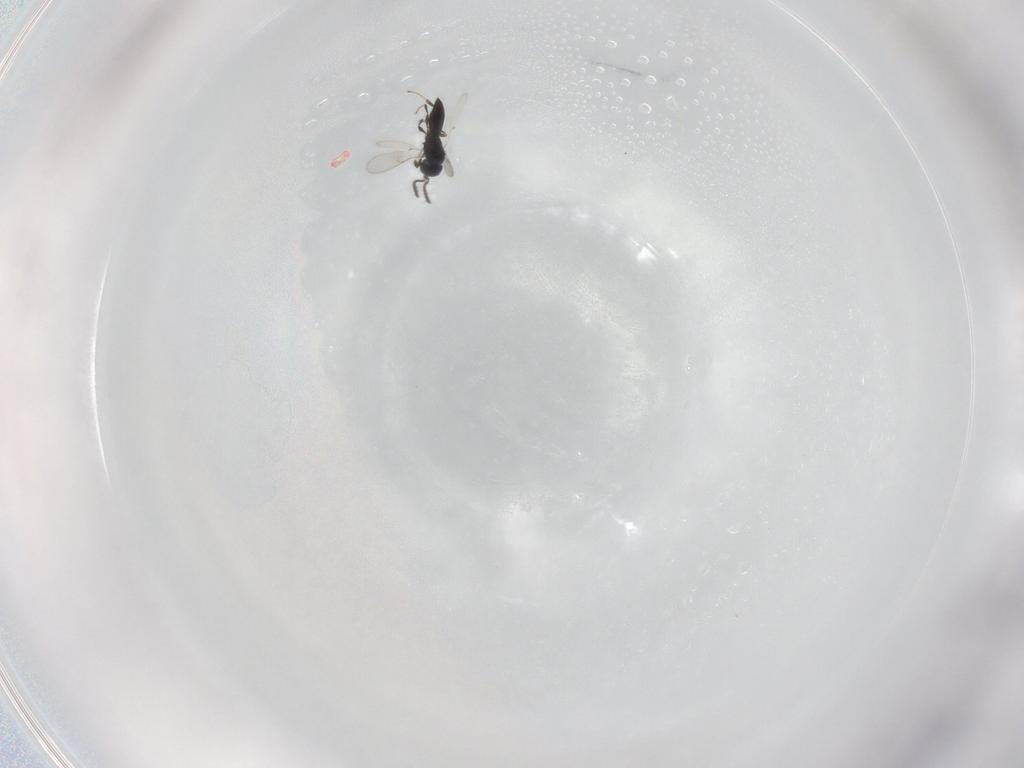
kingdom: Animalia
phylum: Arthropoda
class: Insecta
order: Hymenoptera
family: Scelionidae
